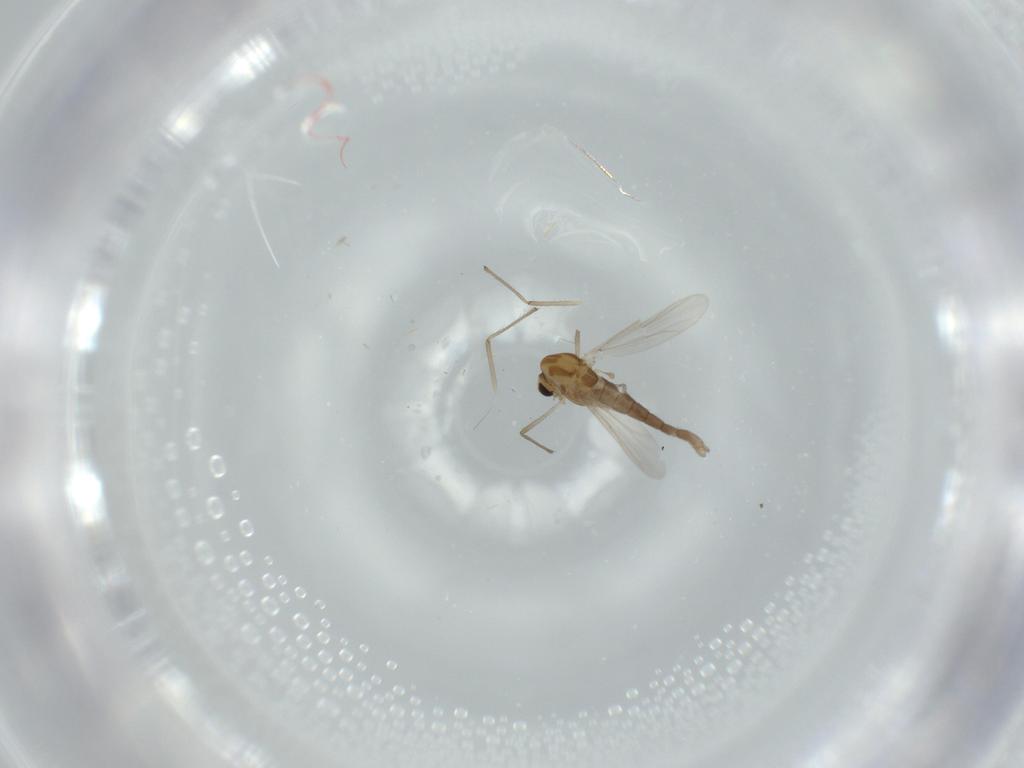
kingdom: Animalia
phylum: Arthropoda
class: Insecta
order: Diptera
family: Chironomidae
